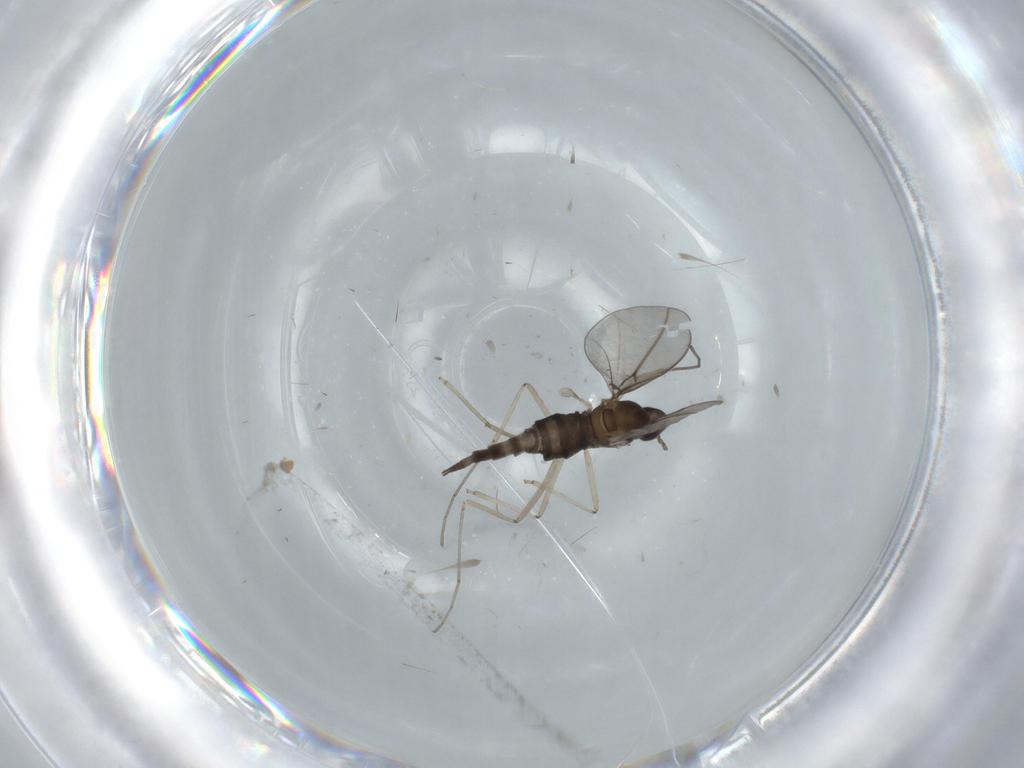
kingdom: Animalia
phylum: Arthropoda
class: Insecta
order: Diptera
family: Cecidomyiidae
